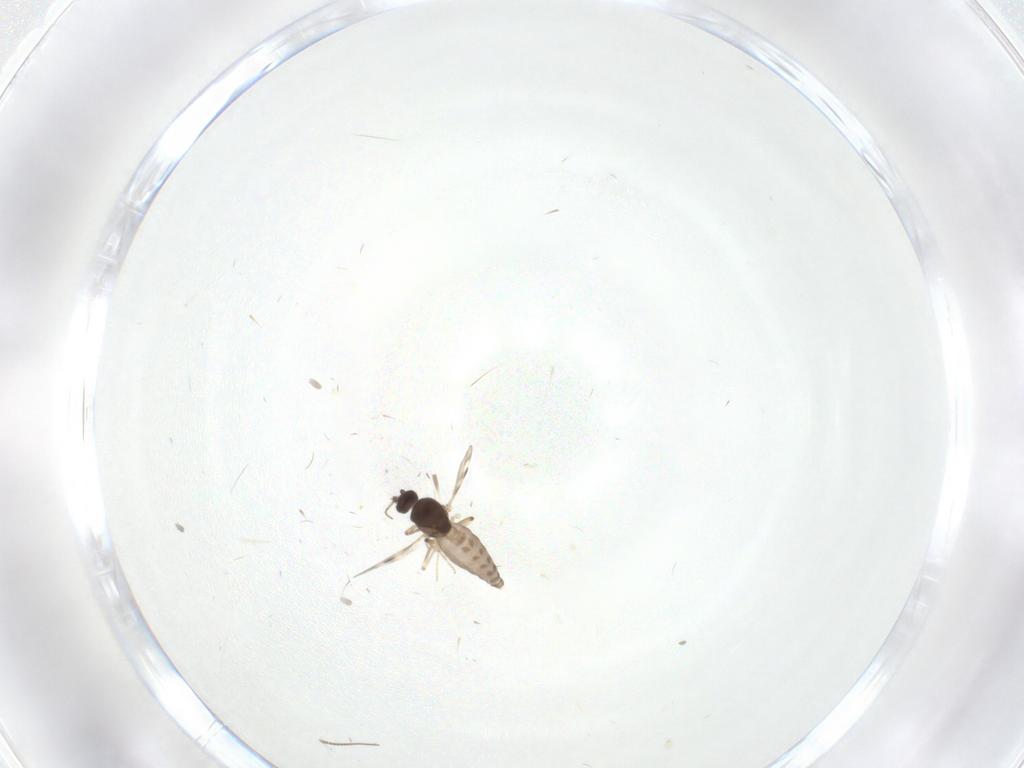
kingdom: Animalia
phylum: Arthropoda
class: Insecta
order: Diptera
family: Chironomidae
